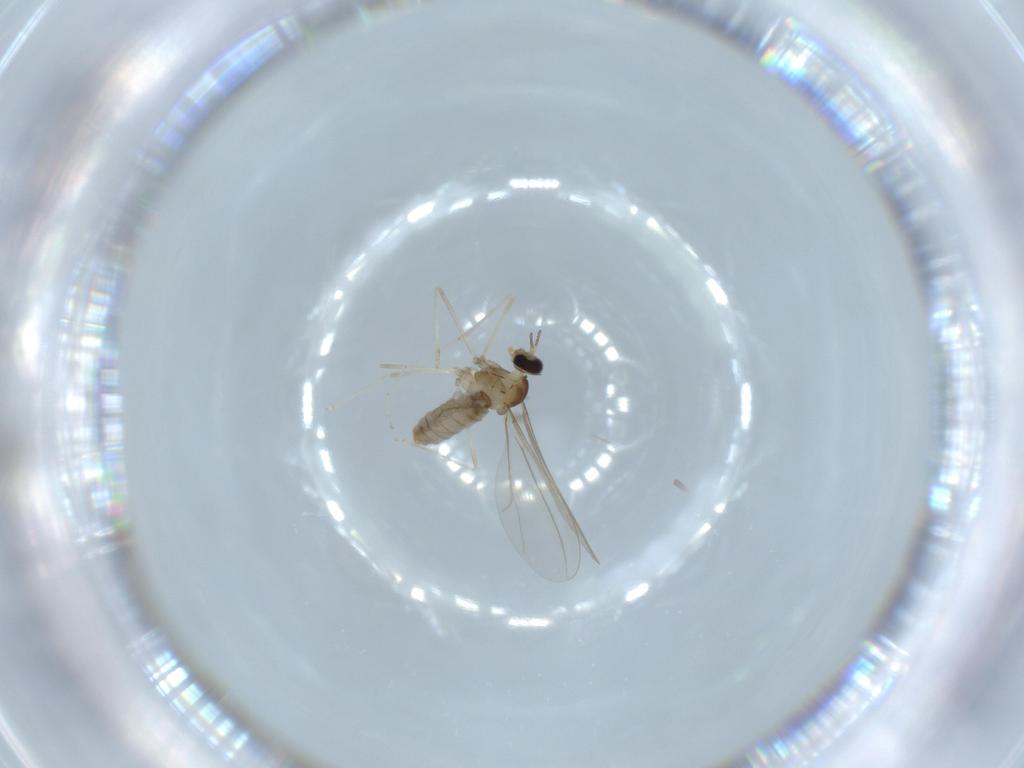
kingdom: Animalia
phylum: Arthropoda
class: Insecta
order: Diptera
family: Cecidomyiidae
